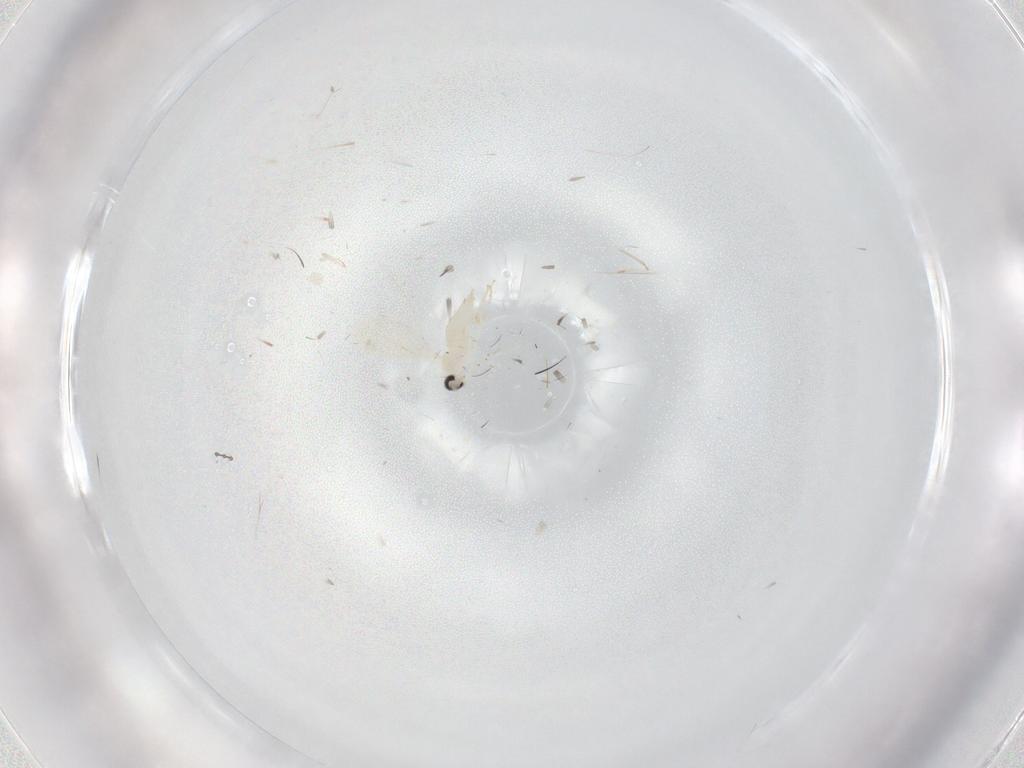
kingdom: Animalia
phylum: Arthropoda
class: Insecta
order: Diptera
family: Cecidomyiidae
